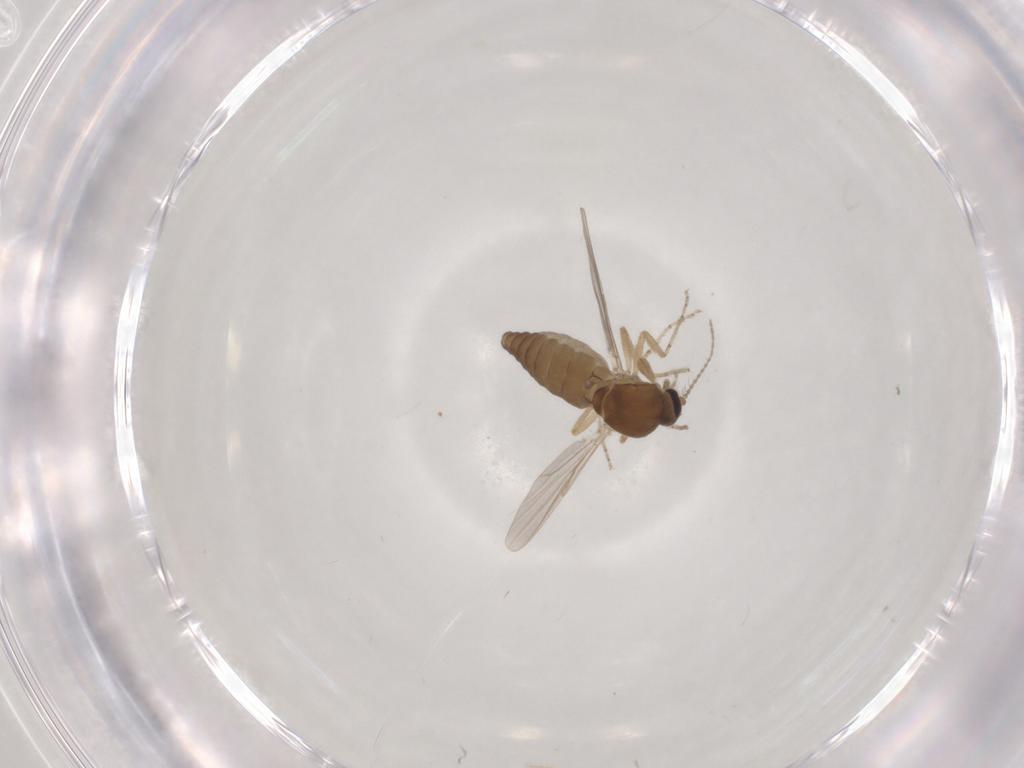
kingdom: Animalia
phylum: Arthropoda
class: Insecta
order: Diptera
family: Ceratopogonidae
